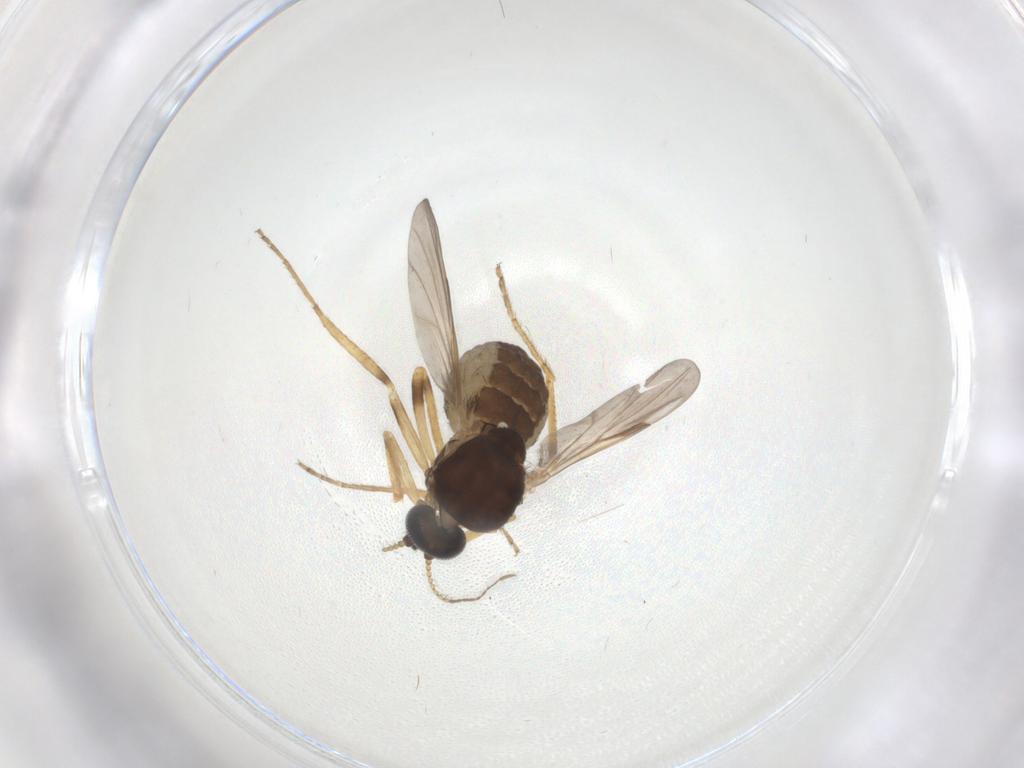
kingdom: Animalia
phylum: Arthropoda
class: Insecta
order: Diptera
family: Ceratopogonidae
